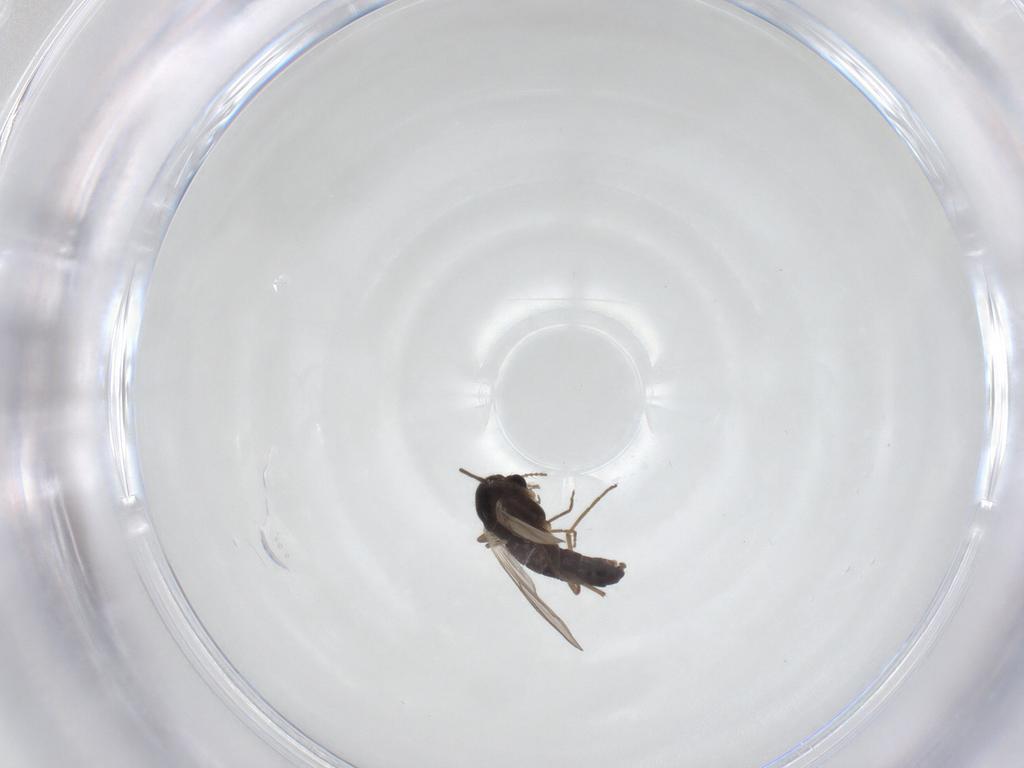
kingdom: Animalia
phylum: Arthropoda
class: Insecta
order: Diptera
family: Chironomidae
